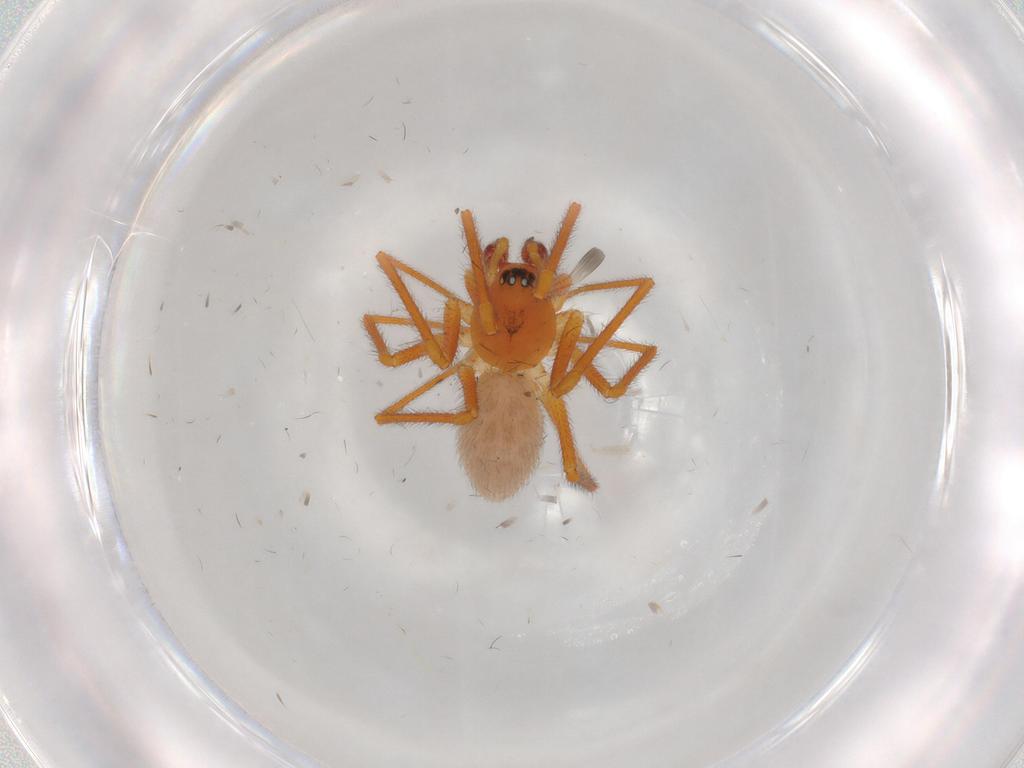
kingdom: Animalia
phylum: Arthropoda
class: Arachnida
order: Araneae
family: Linyphiidae
